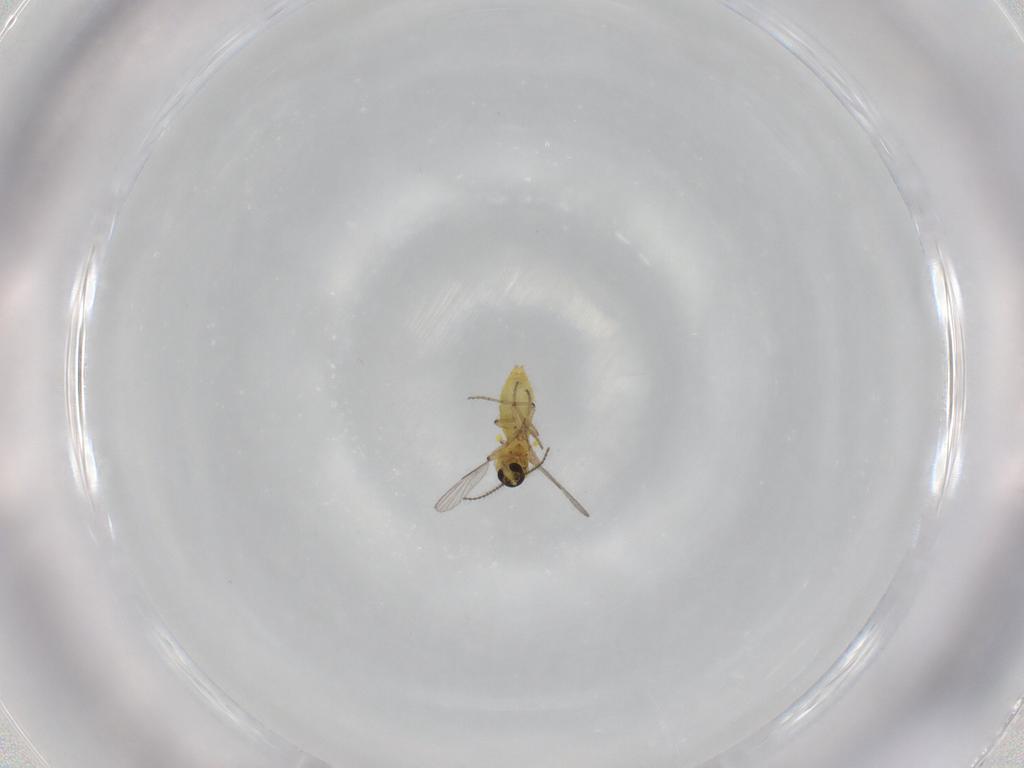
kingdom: Animalia
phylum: Arthropoda
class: Insecta
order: Diptera
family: Ceratopogonidae
